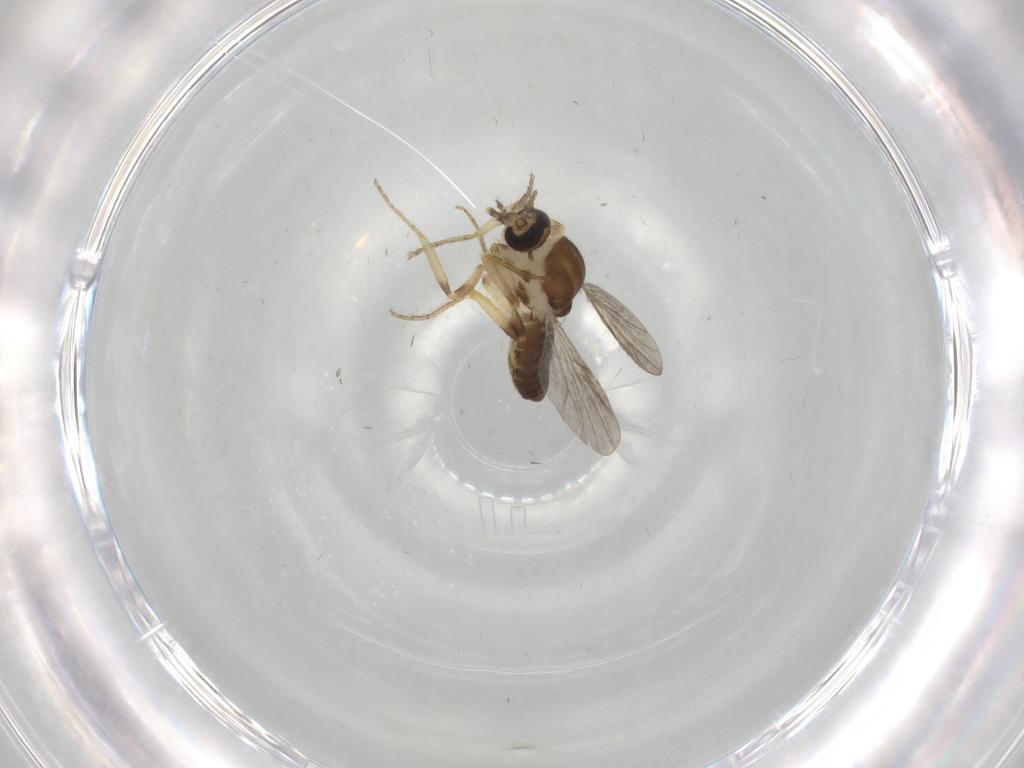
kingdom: Animalia
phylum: Arthropoda
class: Insecta
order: Diptera
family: Ceratopogonidae
